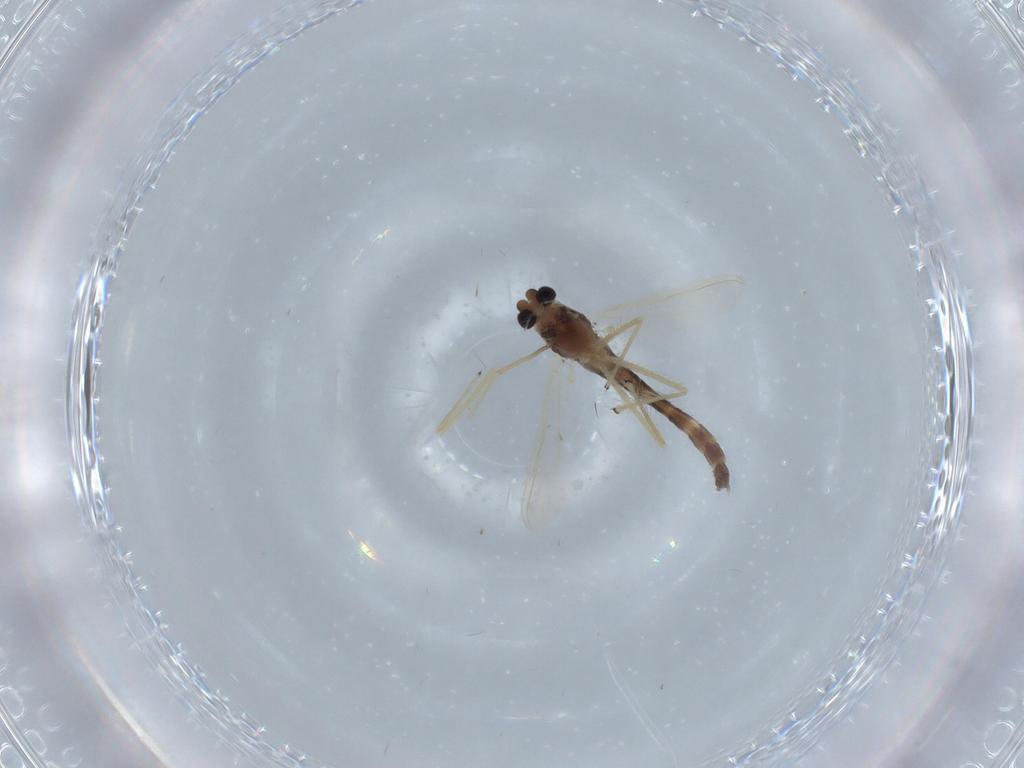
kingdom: Animalia
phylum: Arthropoda
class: Insecta
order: Diptera
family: Cecidomyiidae
